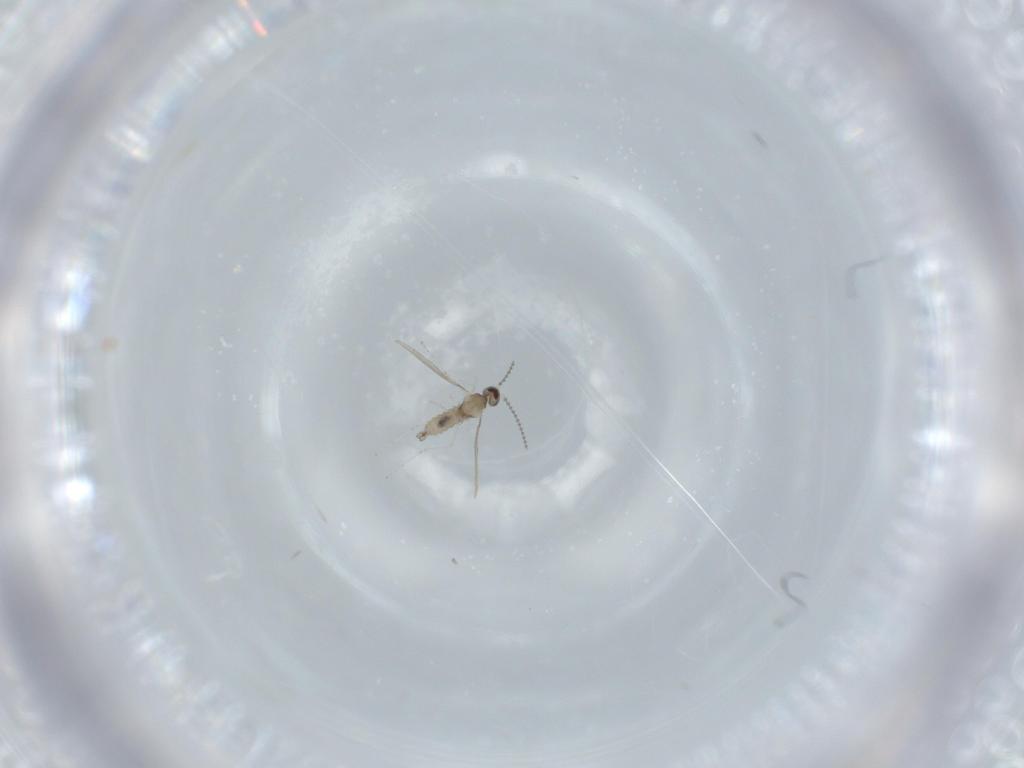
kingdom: Animalia
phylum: Arthropoda
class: Insecta
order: Diptera
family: Cecidomyiidae
